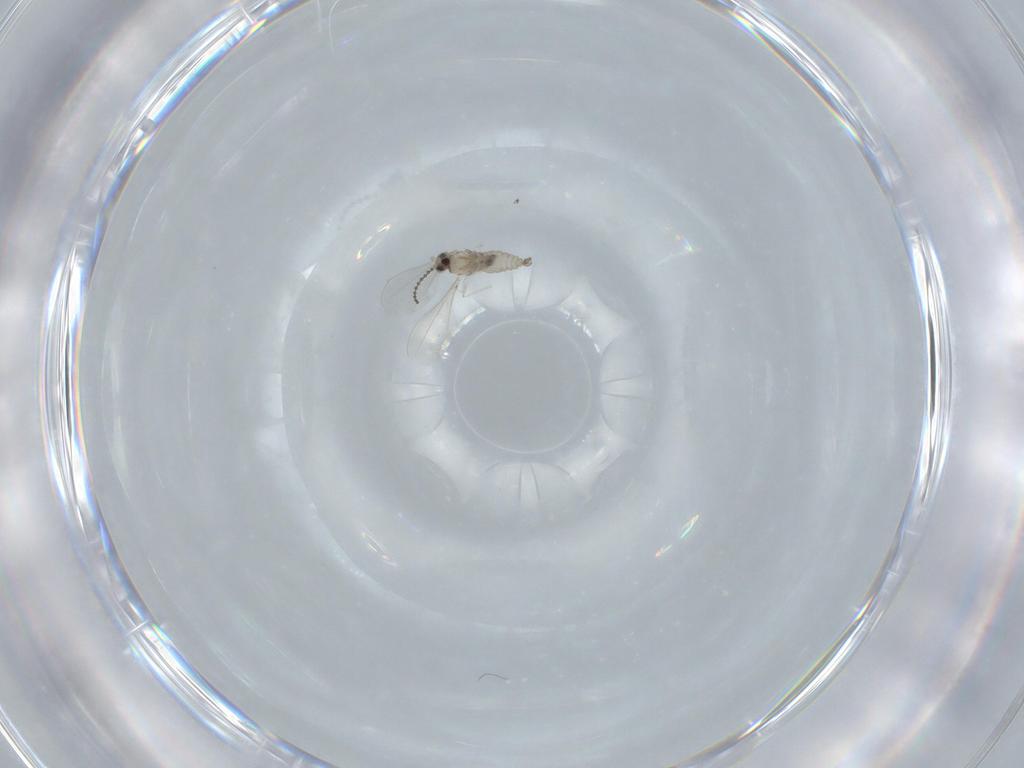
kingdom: Animalia
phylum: Arthropoda
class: Insecta
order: Diptera
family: Cecidomyiidae
